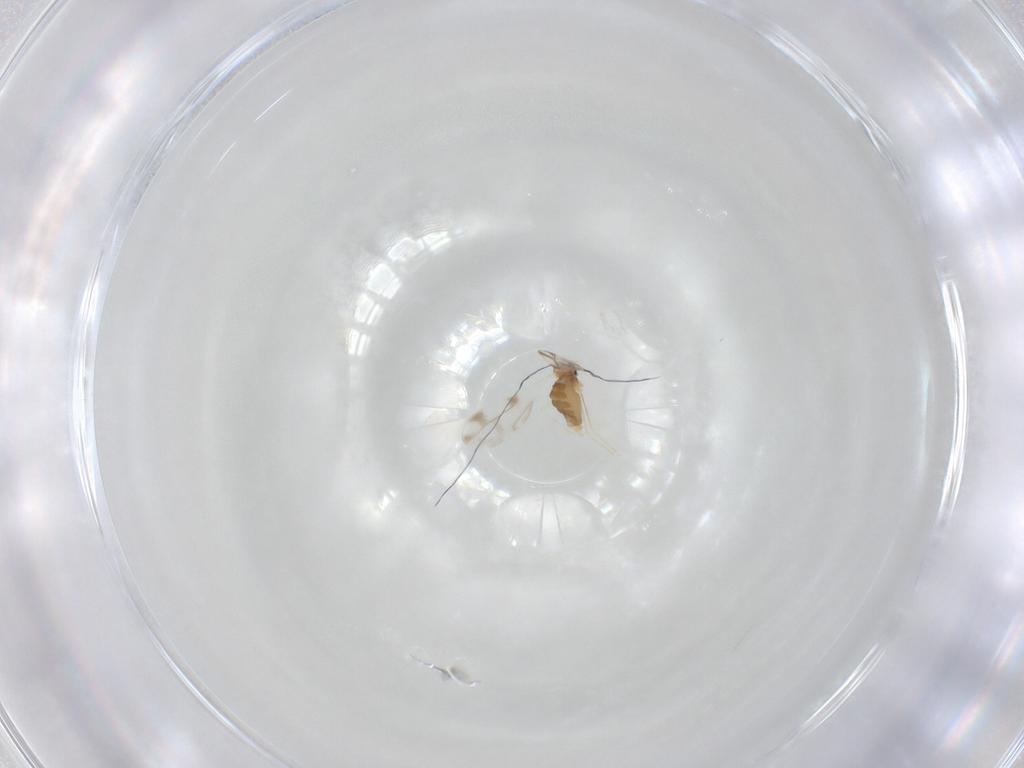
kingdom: Animalia
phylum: Arthropoda
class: Insecta
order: Diptera
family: Cecidomyiidae
